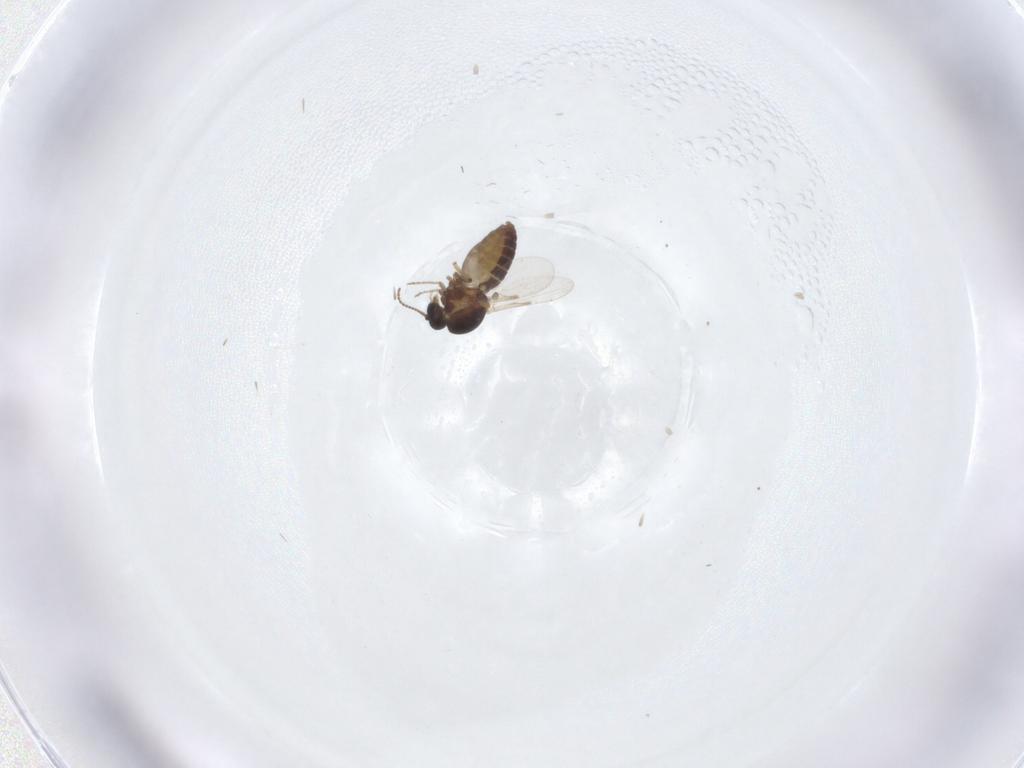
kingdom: Animalia
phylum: Arthropoda
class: Insecta
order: Diptera
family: Ceratopogonidae
